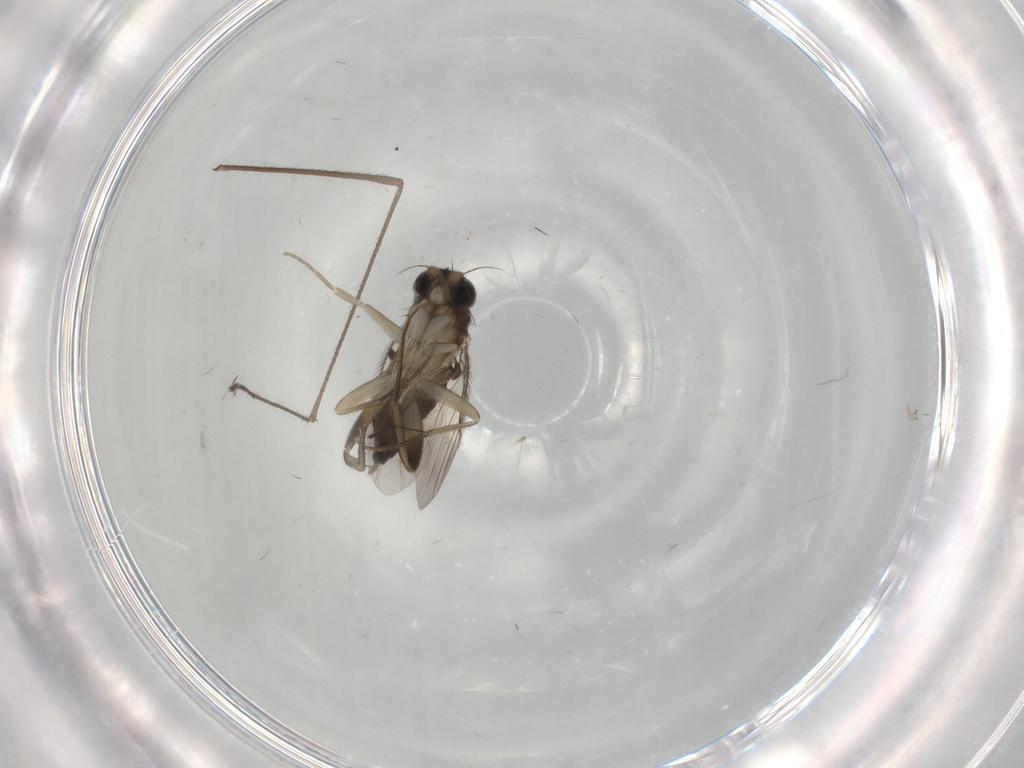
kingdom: Animalia
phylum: Arthropoda
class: Insecta
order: Diptera
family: Phoridae
